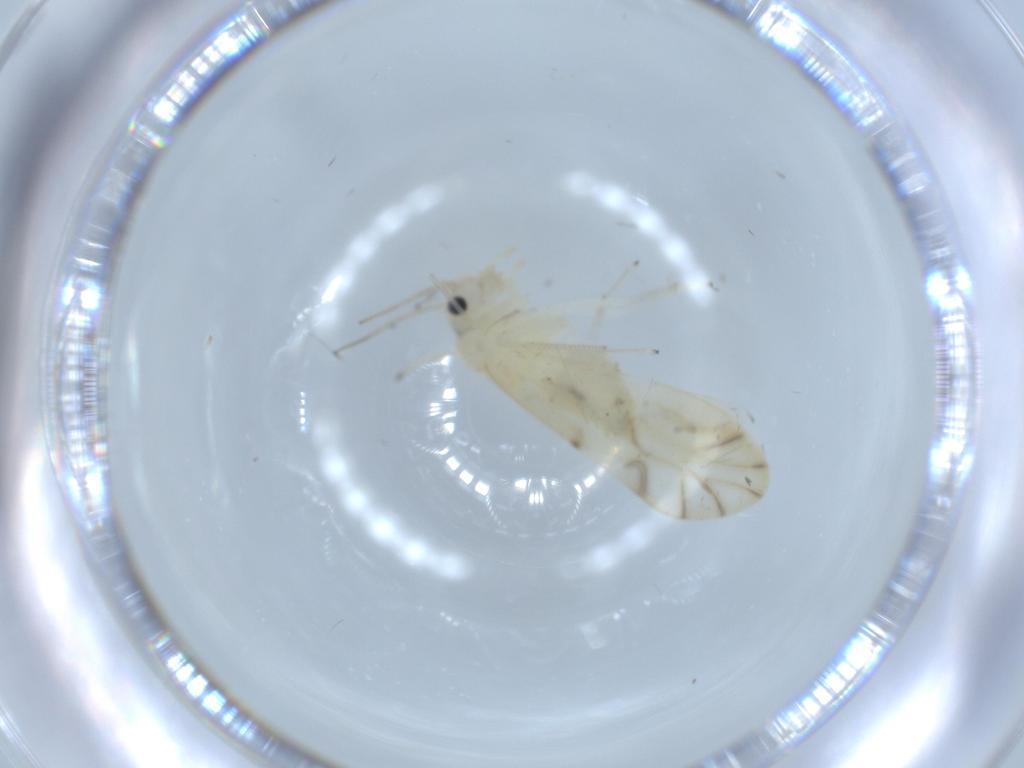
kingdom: Animalia
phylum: Arthropoda
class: Insecta
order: Psocodea
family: Caeciliusidae
